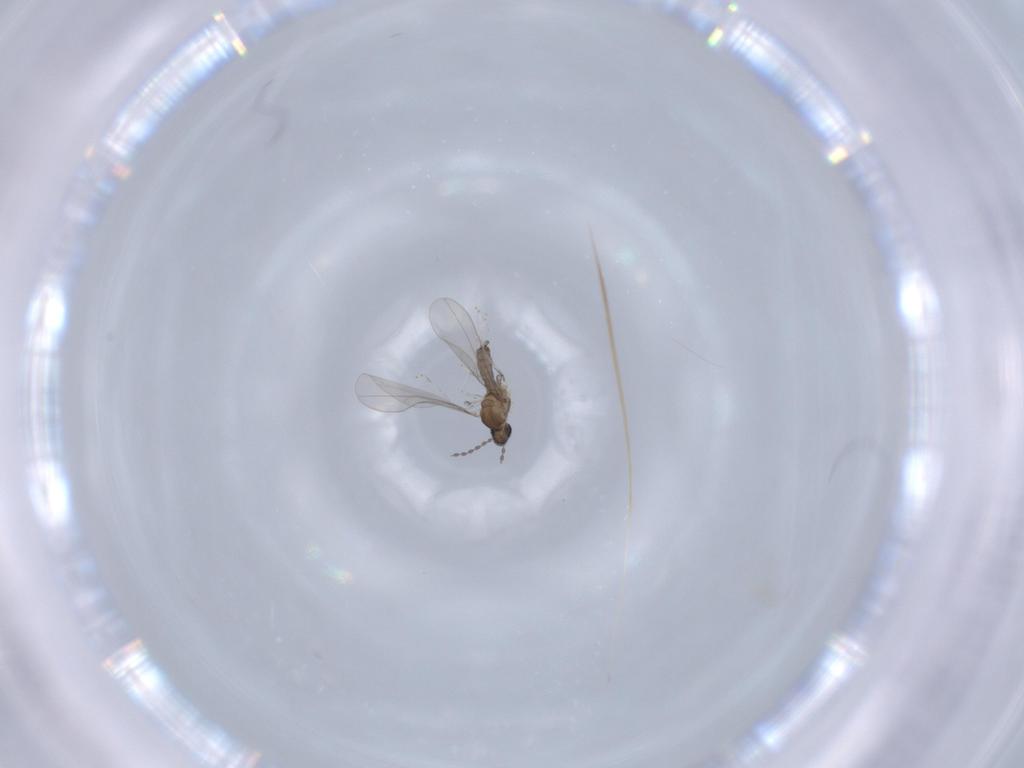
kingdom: Animalia
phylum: Arthropoda
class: Insecta
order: Diptera
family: Cecidomyiidae
